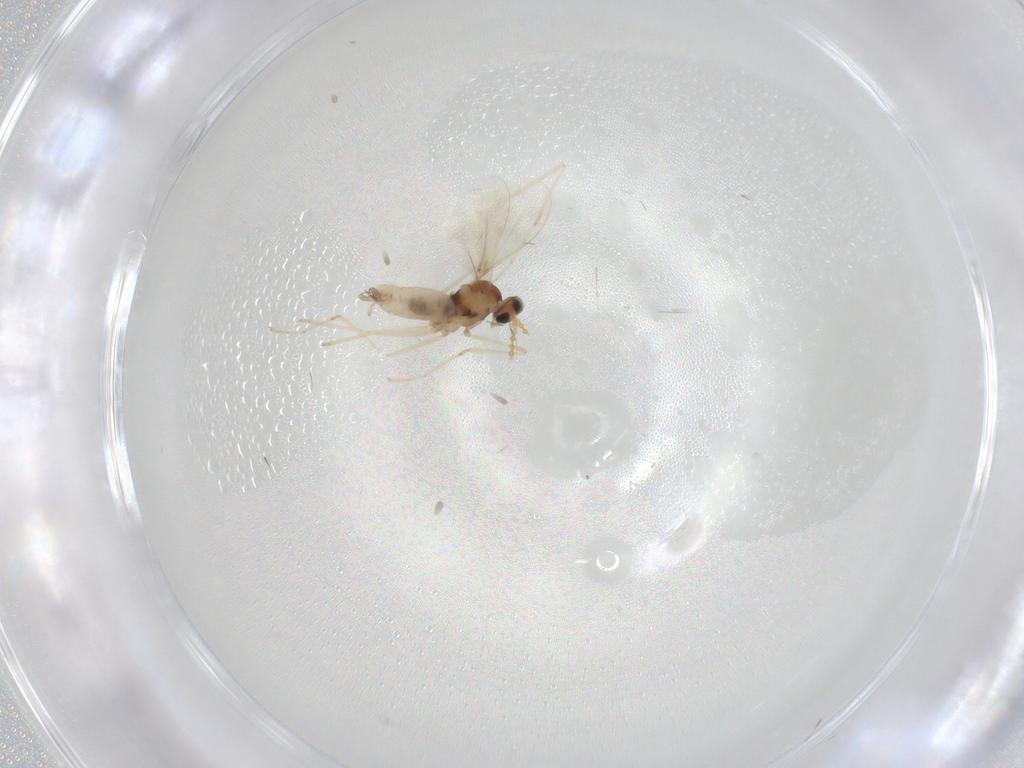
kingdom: Animalia
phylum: Arthropoda
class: Insecta
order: Diptera
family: Cecidomyiidae
